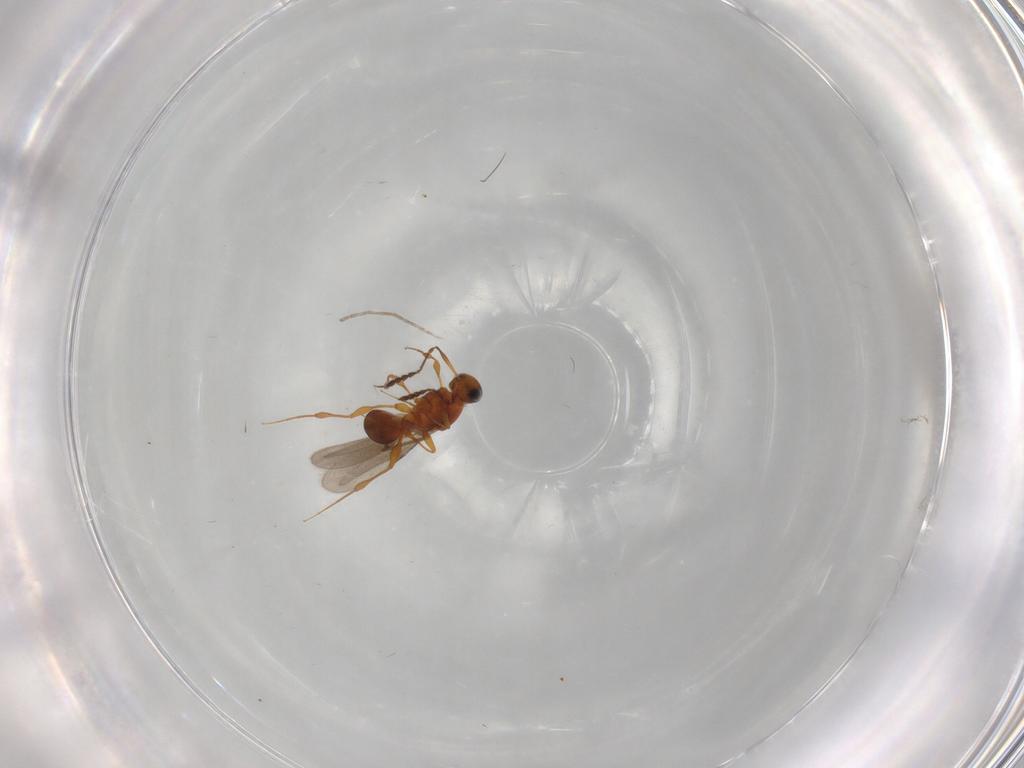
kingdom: Animalia
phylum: Arthropoda
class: Insecta
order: Hymenoptera
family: Platygastridae
